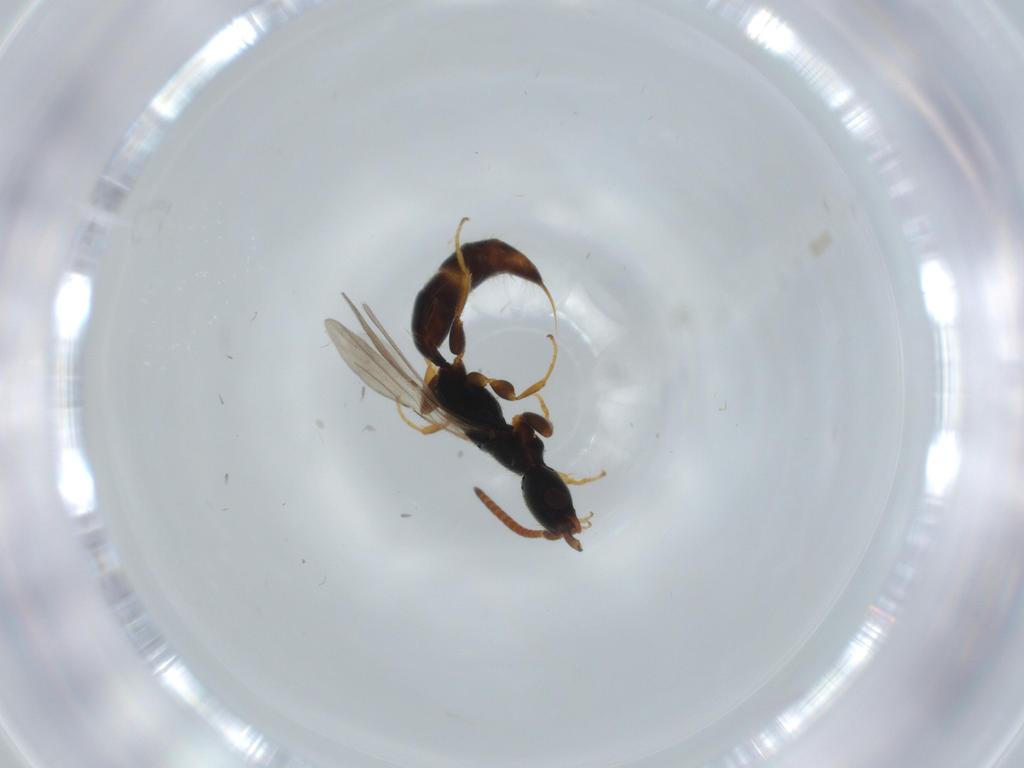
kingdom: Animalia
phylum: Arthropoda
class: Insecta
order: Hymenoptera
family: Bethylidae
